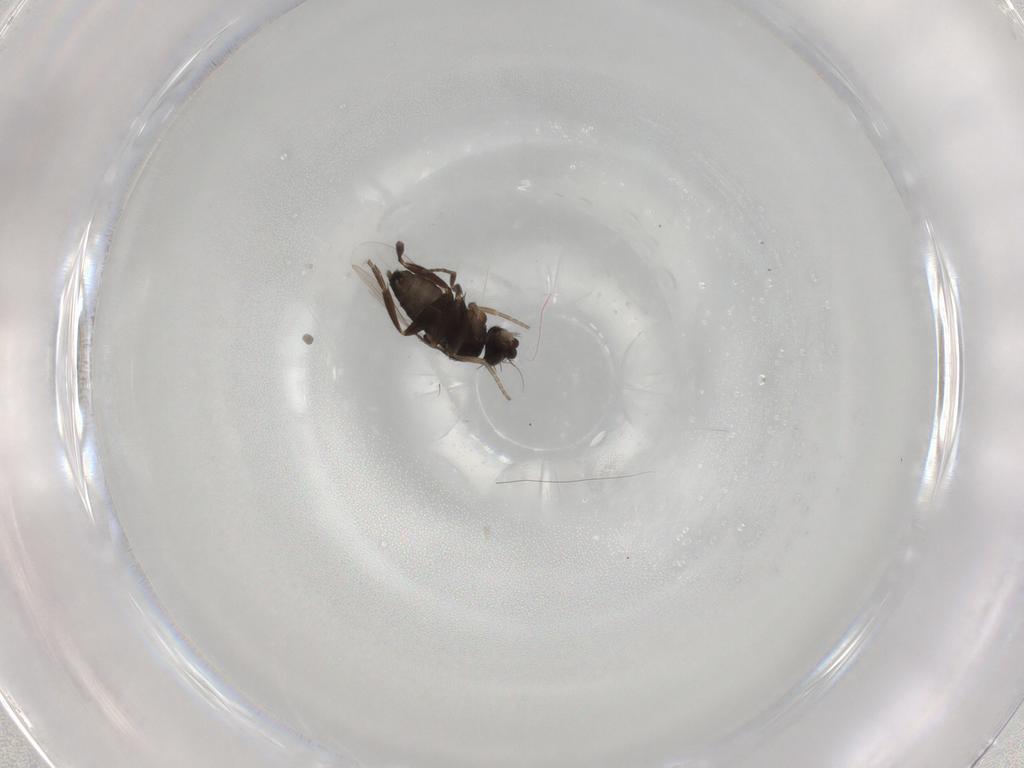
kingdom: Animalia
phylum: Arthropoda
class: Insecta
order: Diptera
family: Phoridae
